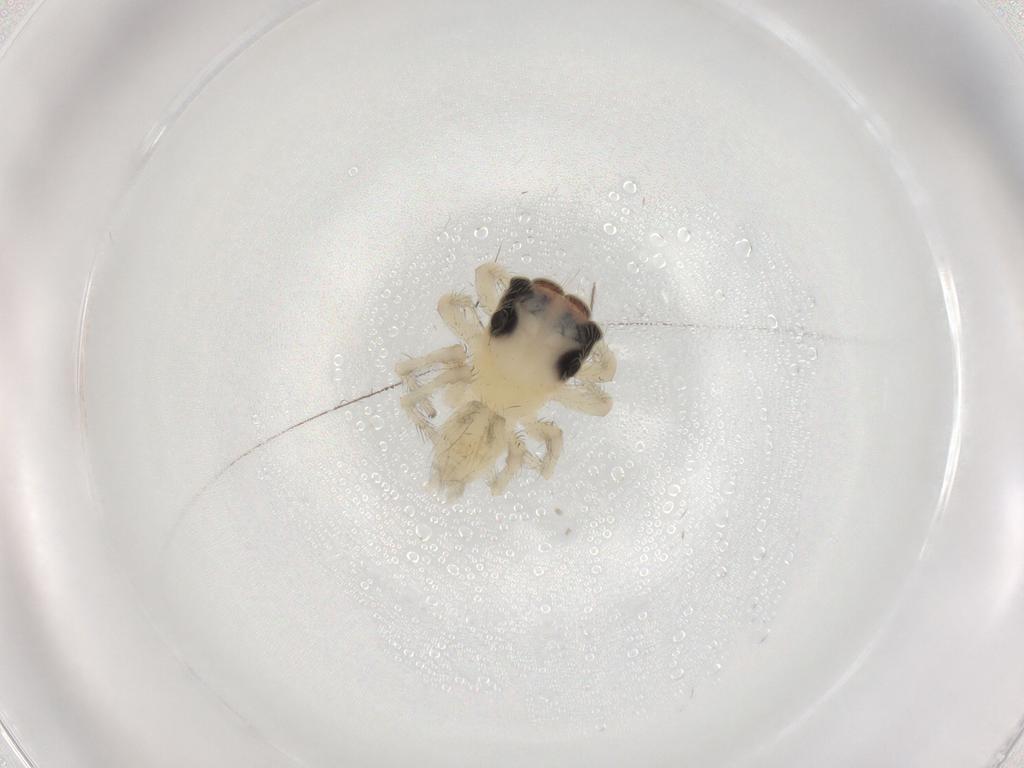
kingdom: Animalia
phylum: Arthropoda
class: Arachnida
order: Araneae
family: Salticidae
